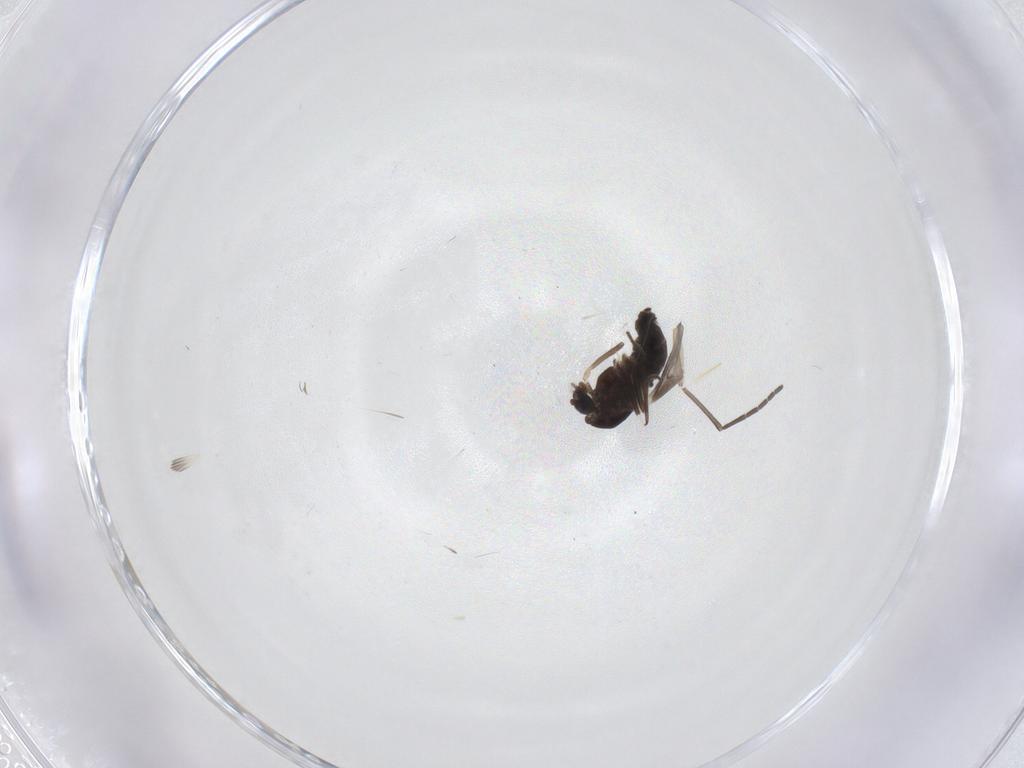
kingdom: Animalia
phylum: Arthropoda
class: Insecta
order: Diptera
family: Chironomidae
